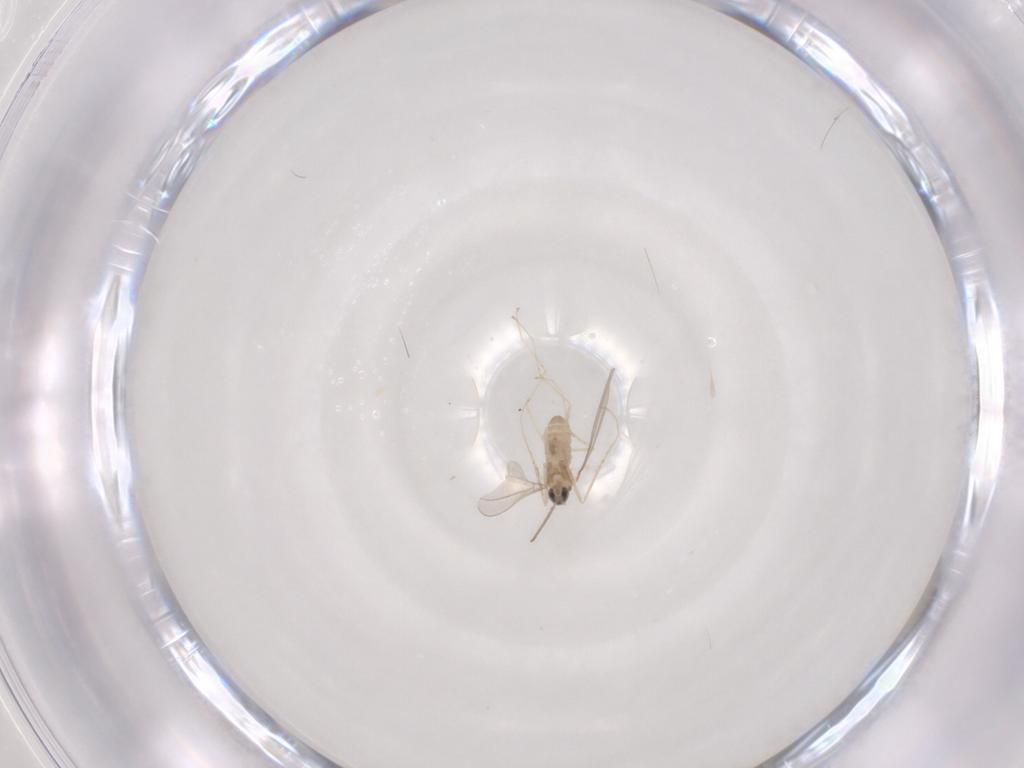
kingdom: Animalia
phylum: Arthropoda
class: Insecta
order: Diptera
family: Cecidomyiidae
